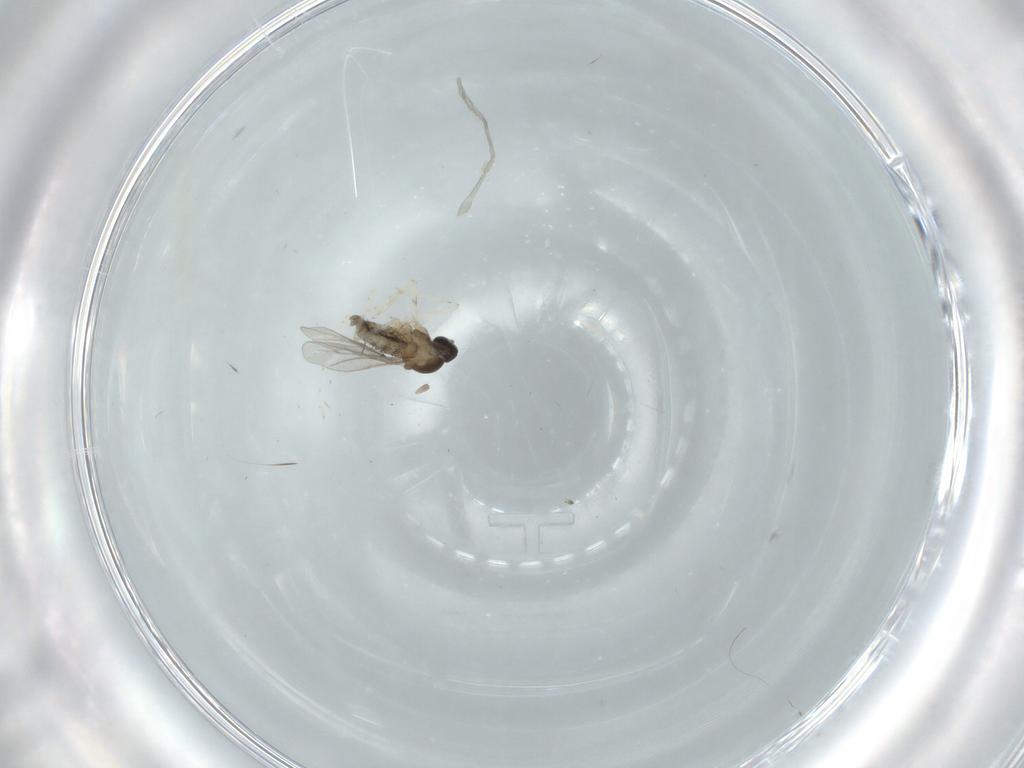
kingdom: Animalia
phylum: Arthropoda
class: Insecta
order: Diptera
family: Cecidomyiidae
